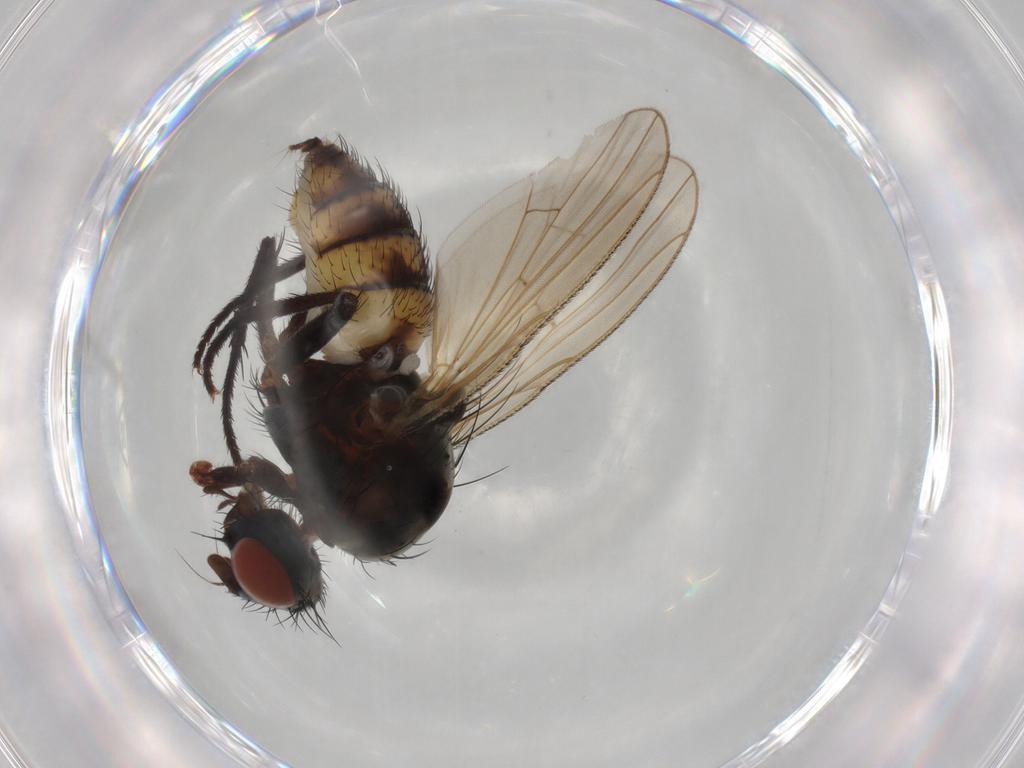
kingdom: Animalia
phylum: Arthropoda
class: Insecta
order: Diptera
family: Anthomyiidae
